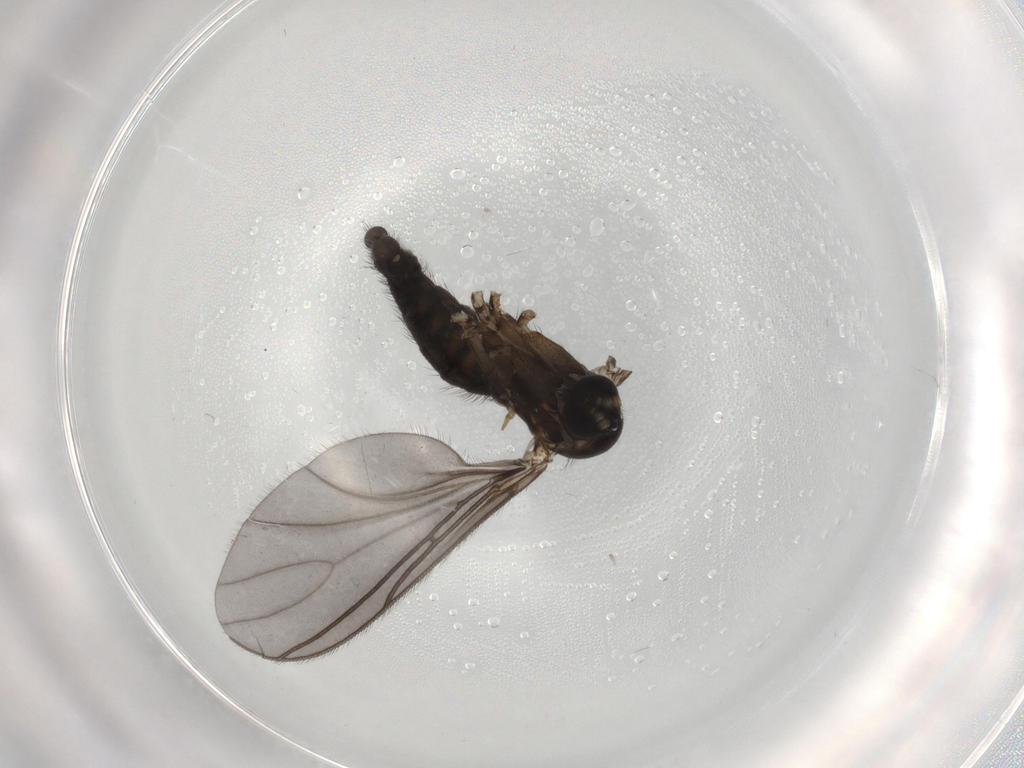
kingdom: Animalia
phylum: Arthropoda
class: Insecta
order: Diptera
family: Sciaridae
